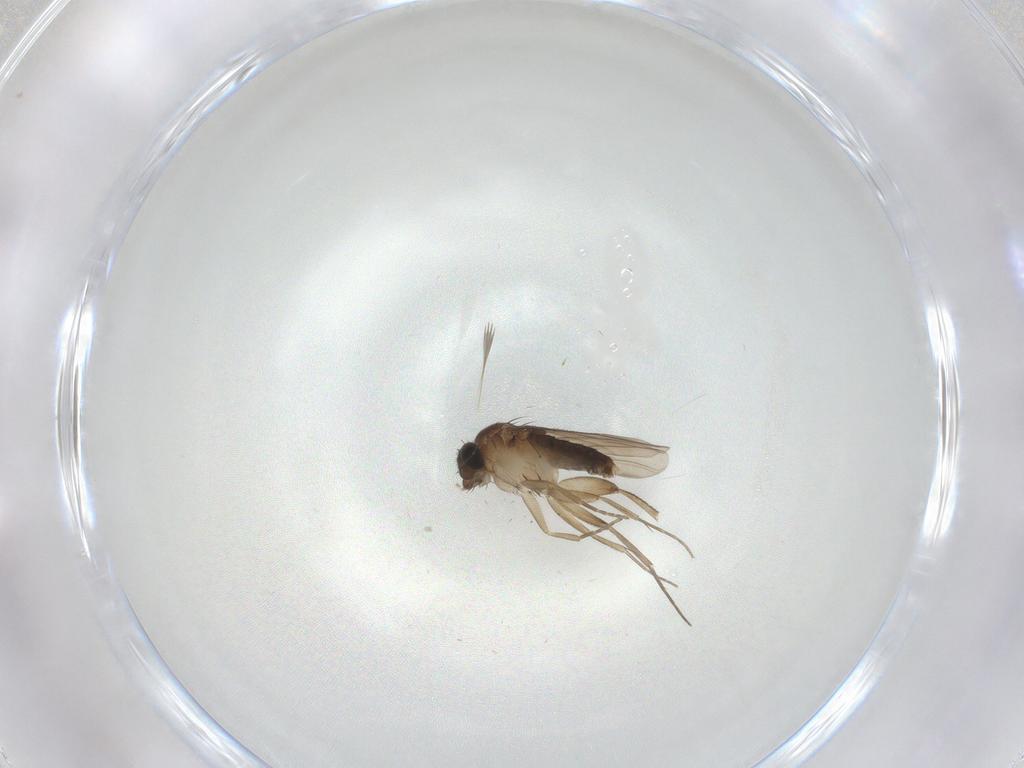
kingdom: Animalia
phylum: Arthropoda
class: Insecta
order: Diptera
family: Phoridae
